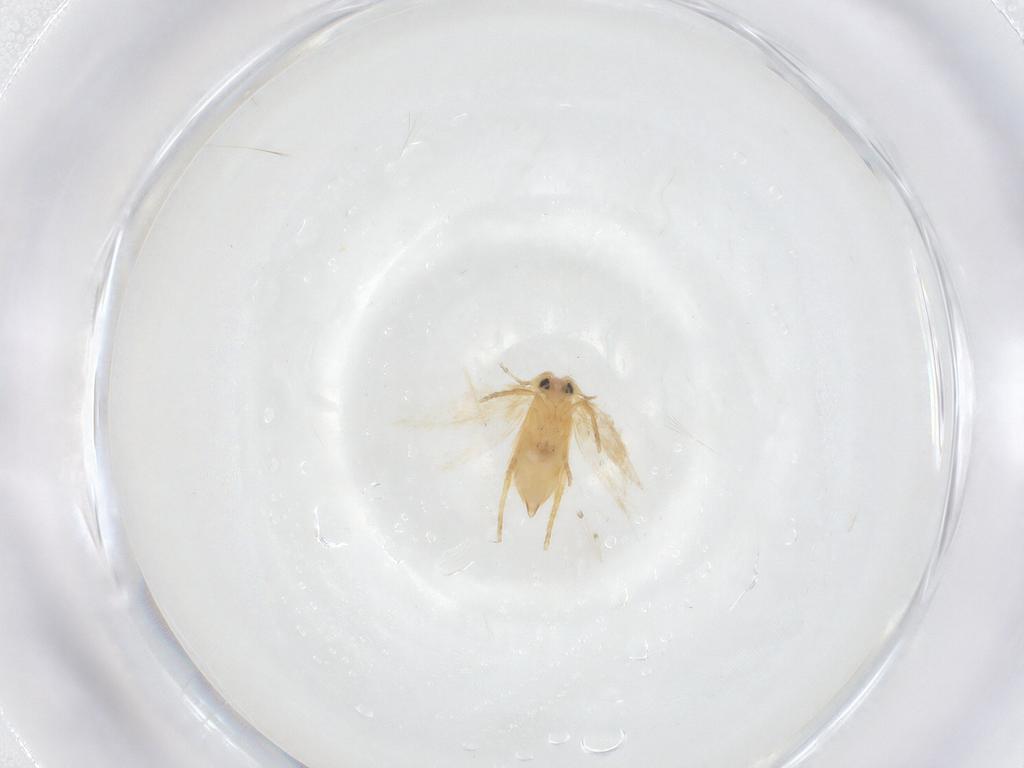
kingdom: Animalia
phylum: Arthropoda
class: Insecta
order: Lepidoptera
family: Nepticulidae
